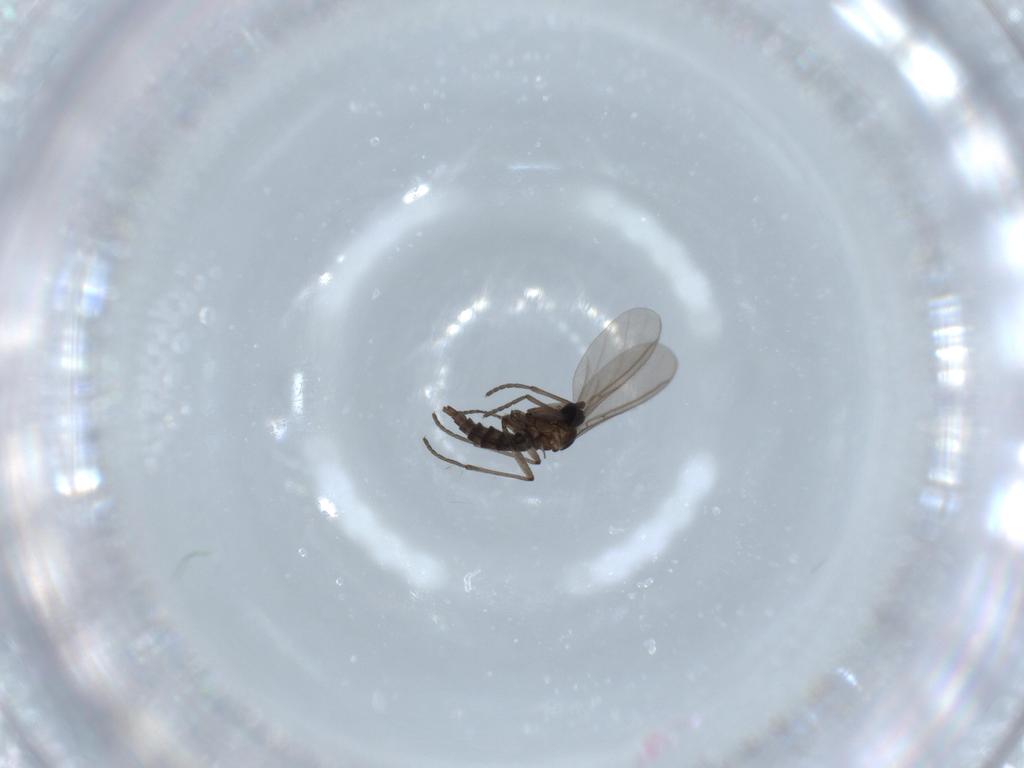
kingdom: Animalia
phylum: Arthropoda
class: Insecta
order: Diptera
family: Sciaridae
